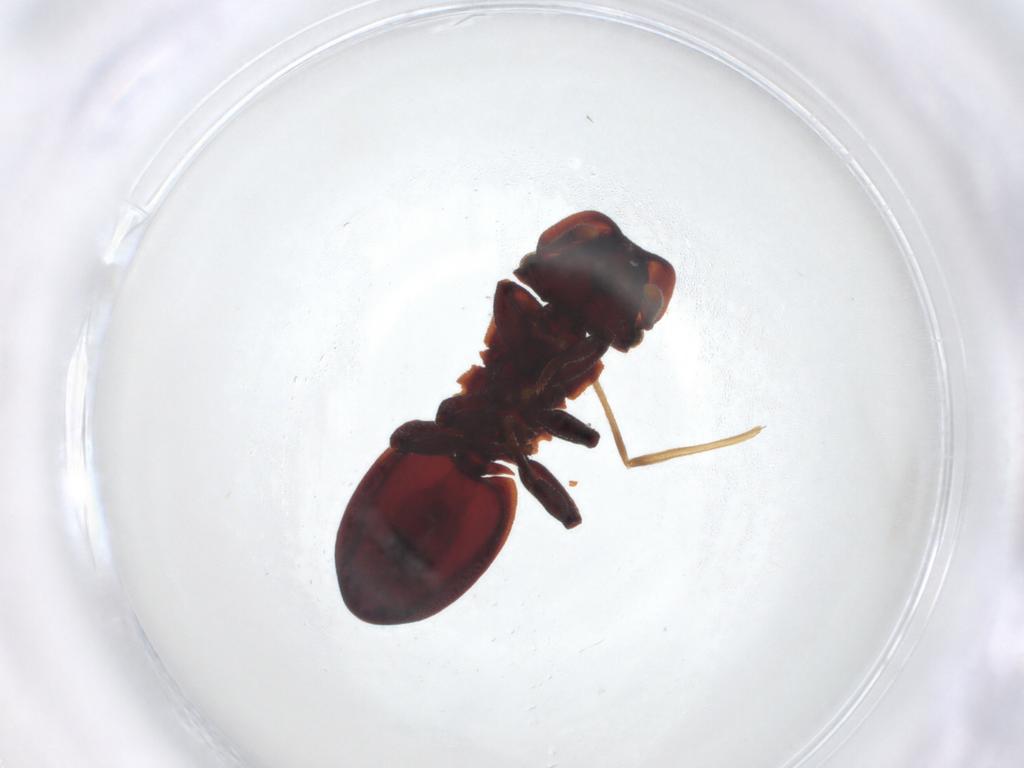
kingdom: Animalia
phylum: Arthropoda
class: Insecta
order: Hymenoptera
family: Formicidae
